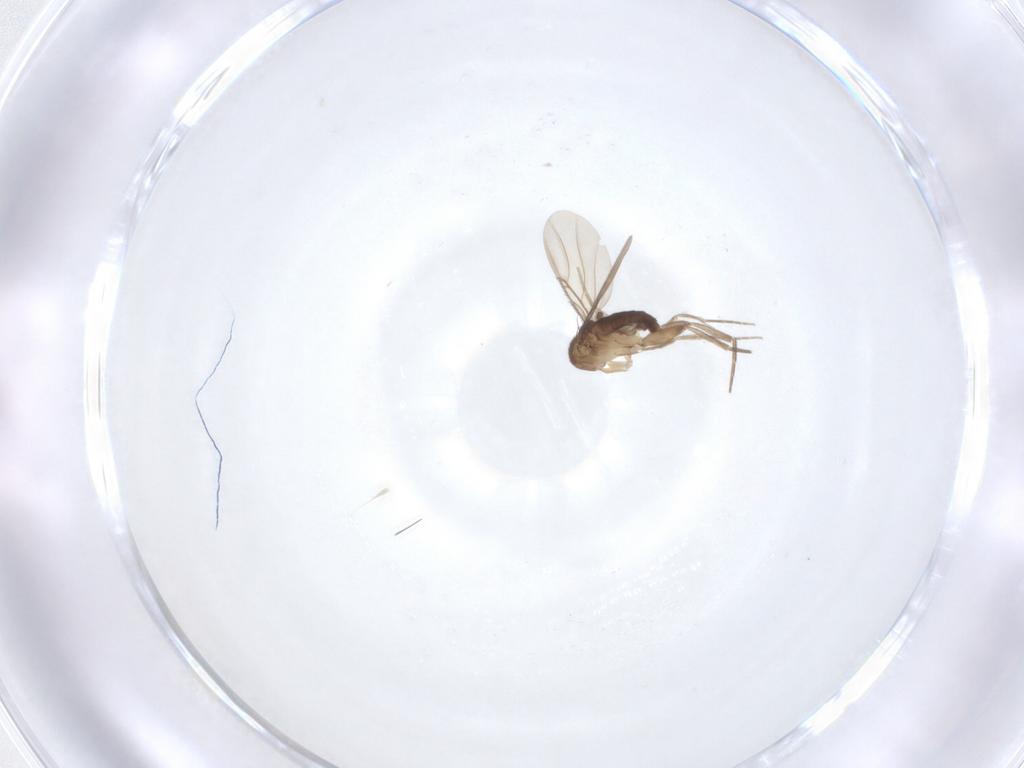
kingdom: Animalia
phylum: Arthropoda
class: Insecta
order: Diptera
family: Phoridae
